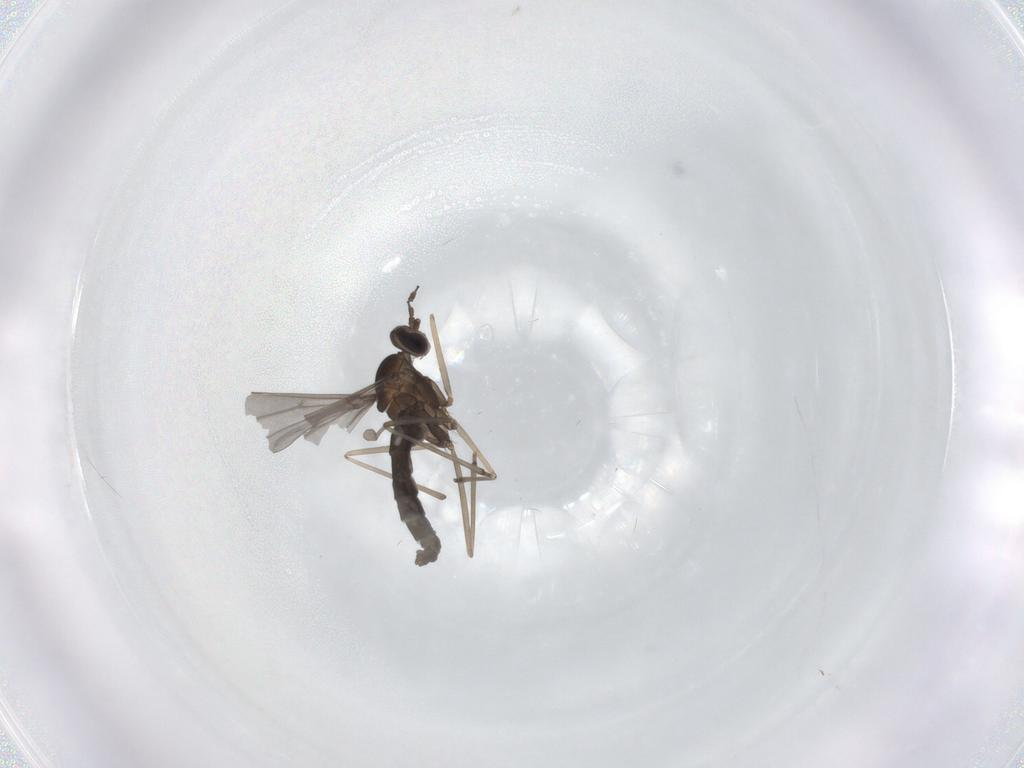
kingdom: Animalia
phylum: Arthropoda
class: Insecta
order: Diptera
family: Cecidomyiidae
